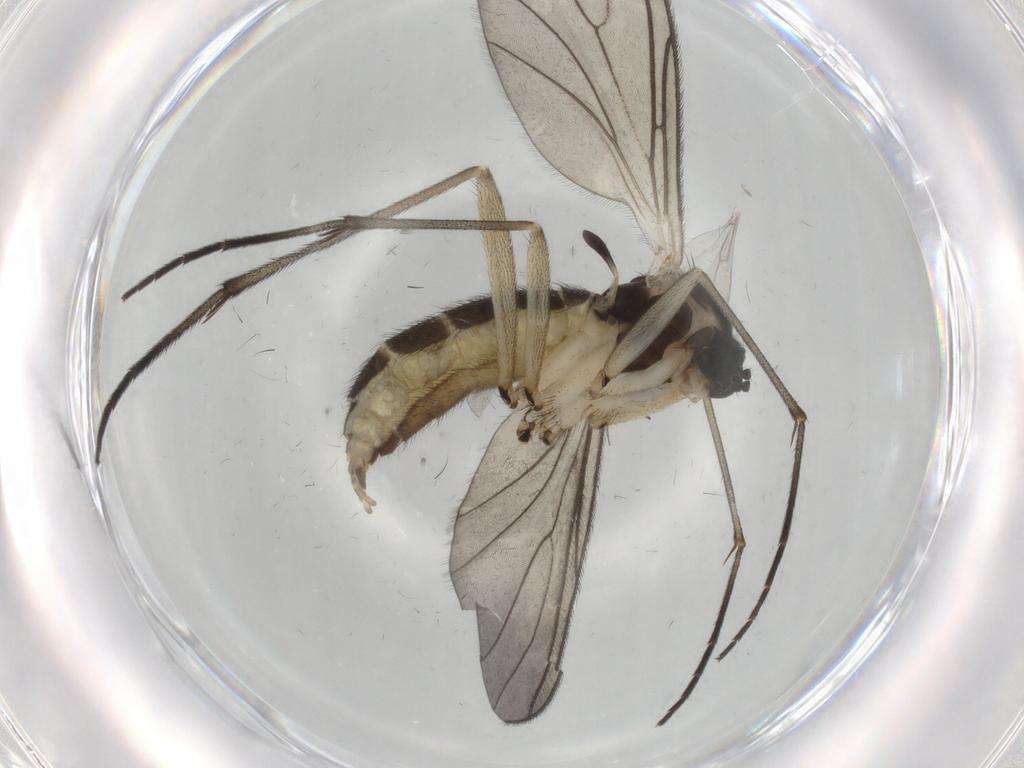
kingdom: Animalia
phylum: Arthropoda
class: Insecta
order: Diptera
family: Sciaridae
